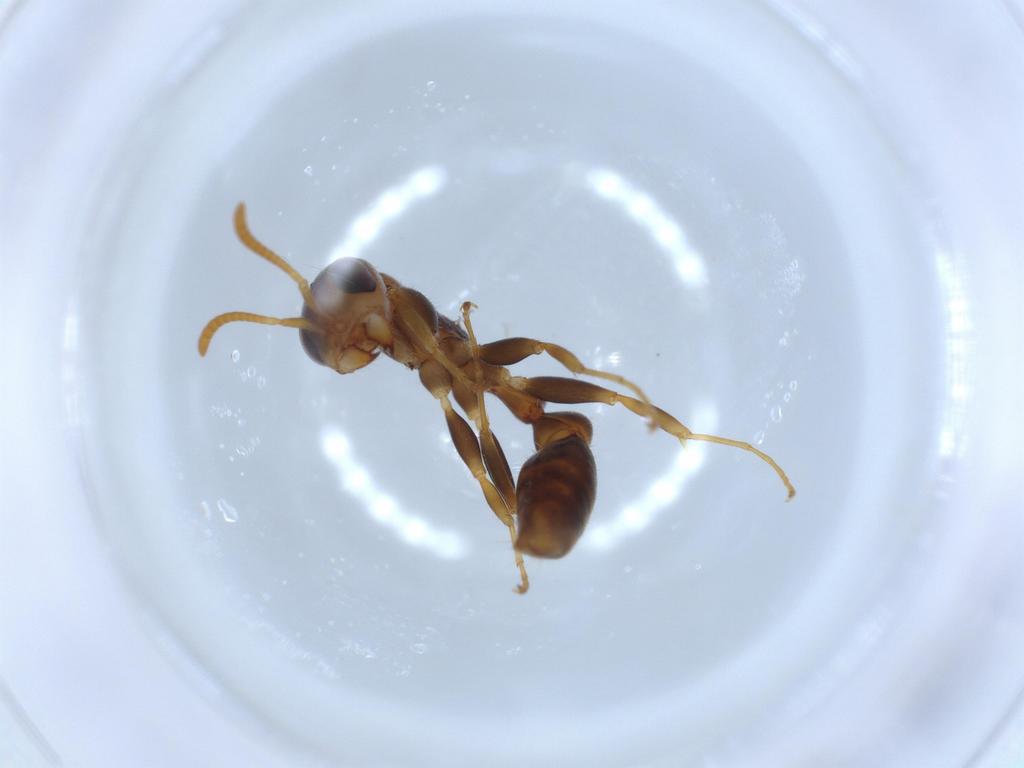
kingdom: Animalia
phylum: Arthropoda
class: Insecta
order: Hymenoptera
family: Formicidae
